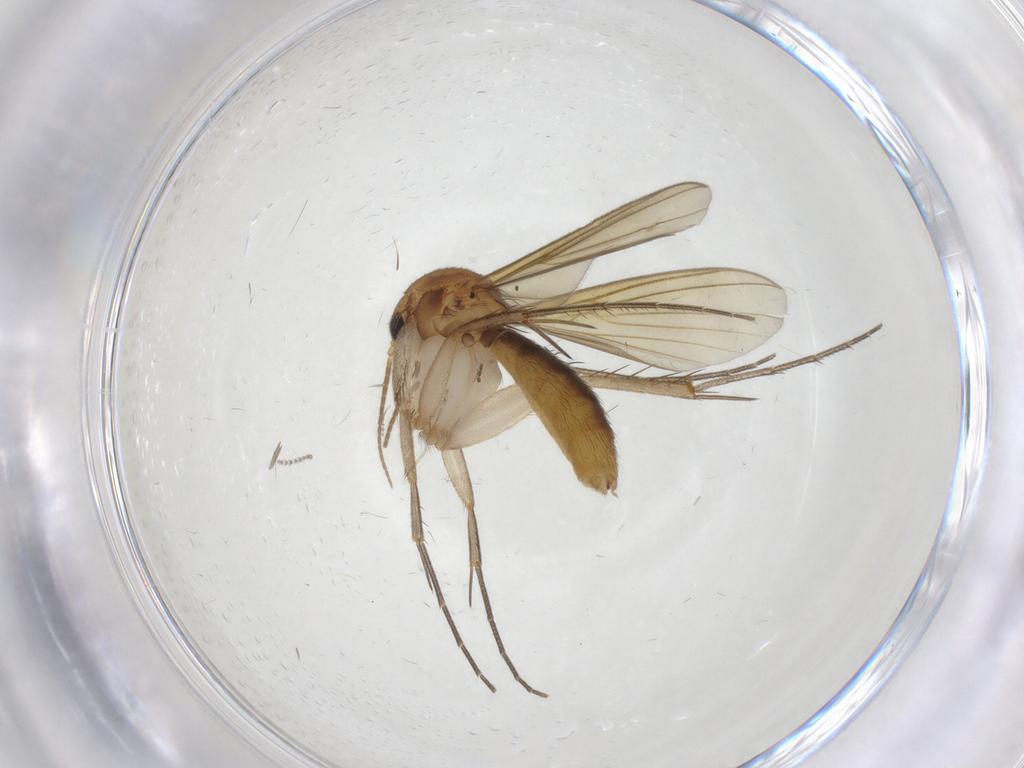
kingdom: Animalia
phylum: Arthropoda
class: Insecta
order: Diptera
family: Mycetophilidae
